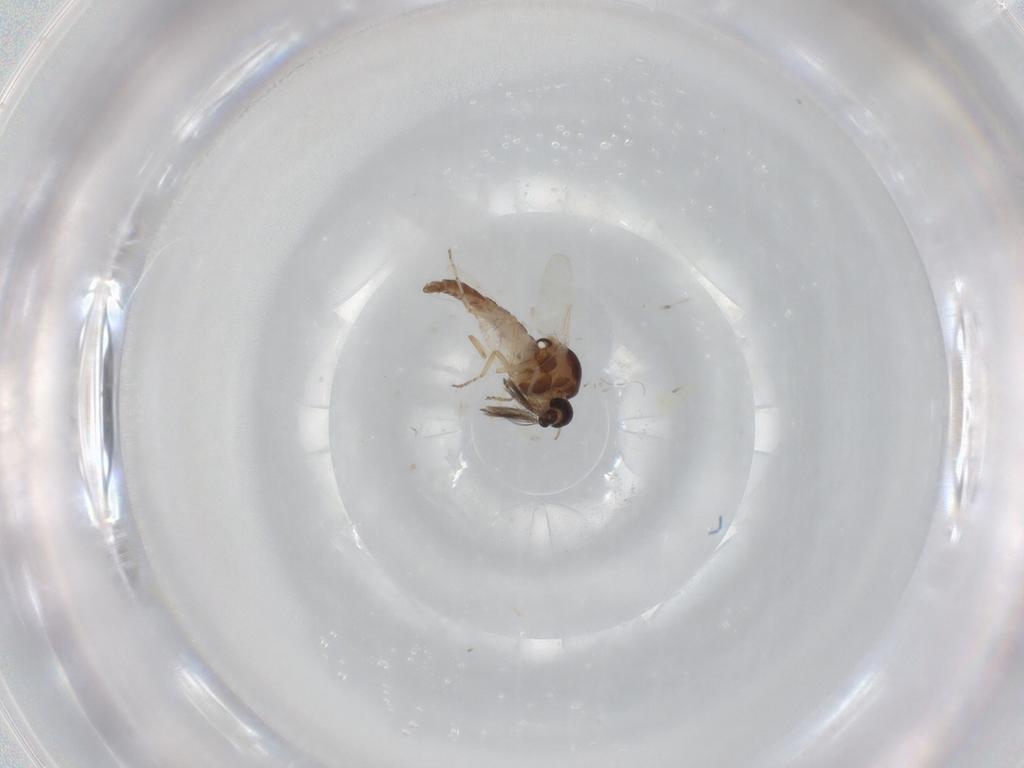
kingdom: Animalia
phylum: Arthropoda
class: Insecta
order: Diptera
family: Ceratopogonidae
